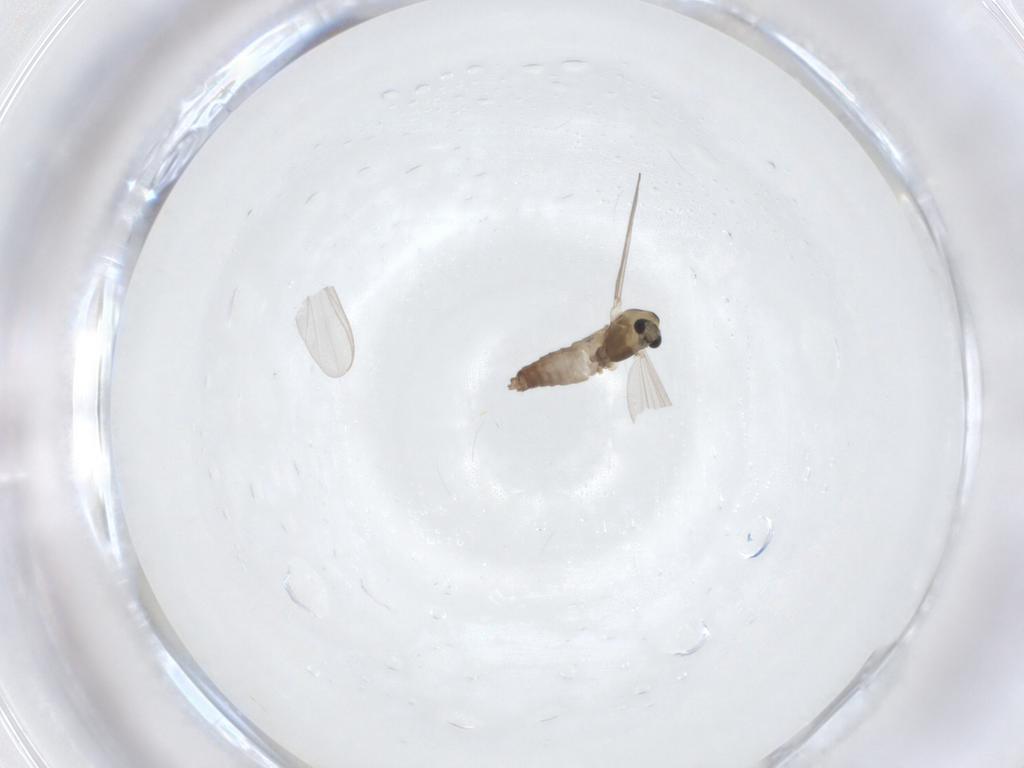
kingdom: Animalia
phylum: Arthropoda
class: Insecta
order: Diptera
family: Chironomidae
